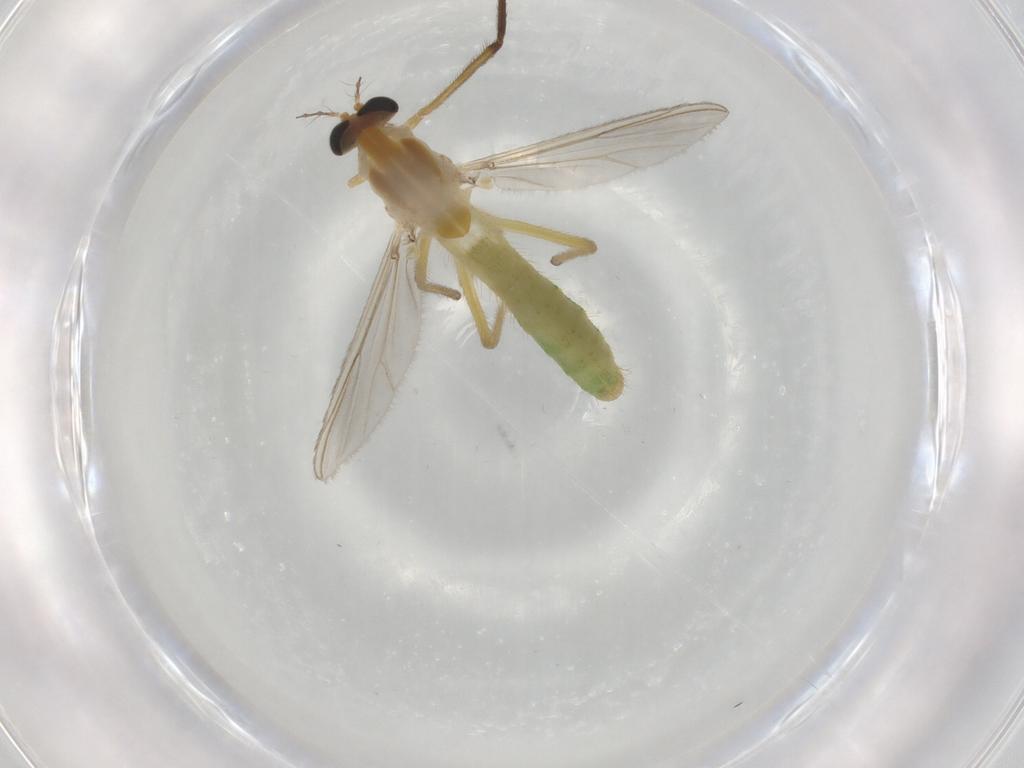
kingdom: Animalia
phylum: Arthropoda
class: Insecta
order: Diptera
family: Chironomidae
